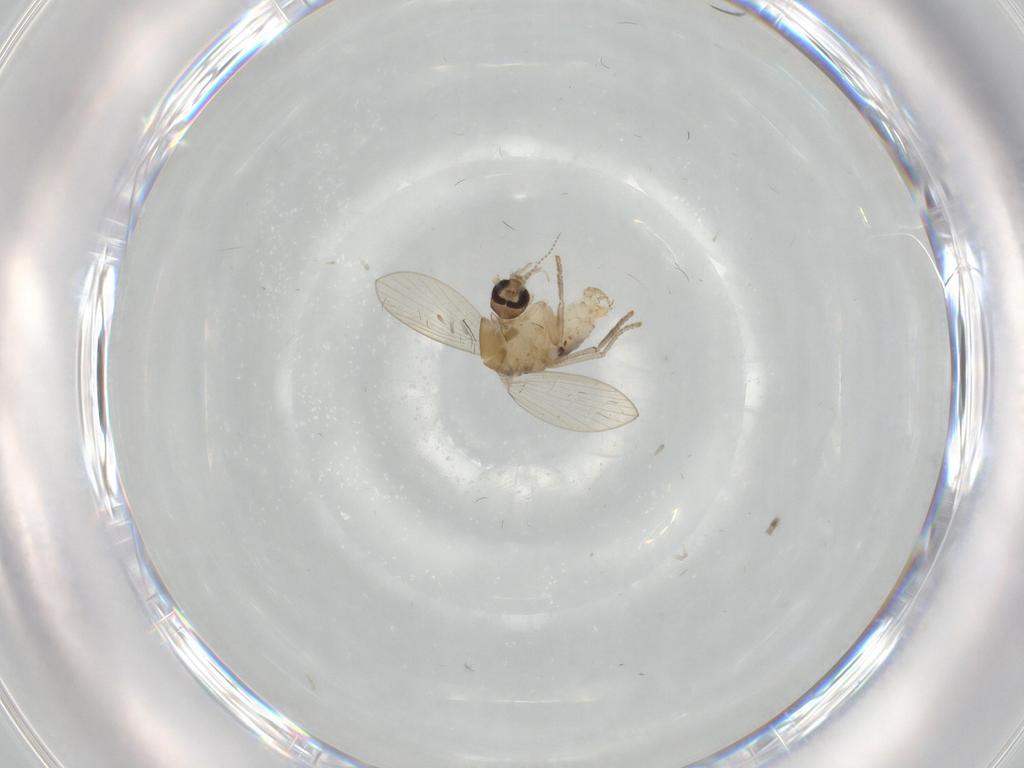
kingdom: Animalia
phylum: Arthropoda
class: Insecta
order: Diptera
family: Psychodidae
